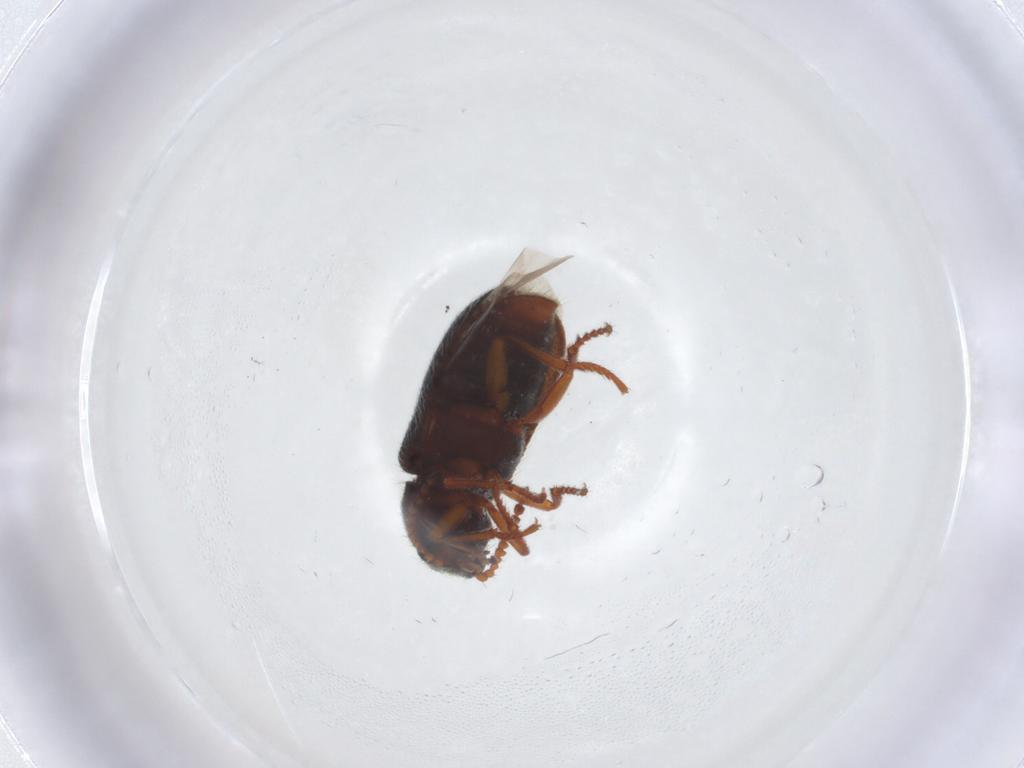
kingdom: Animalia
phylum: Arthropoda
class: Insecta
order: Coleoptera
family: Melyridae
